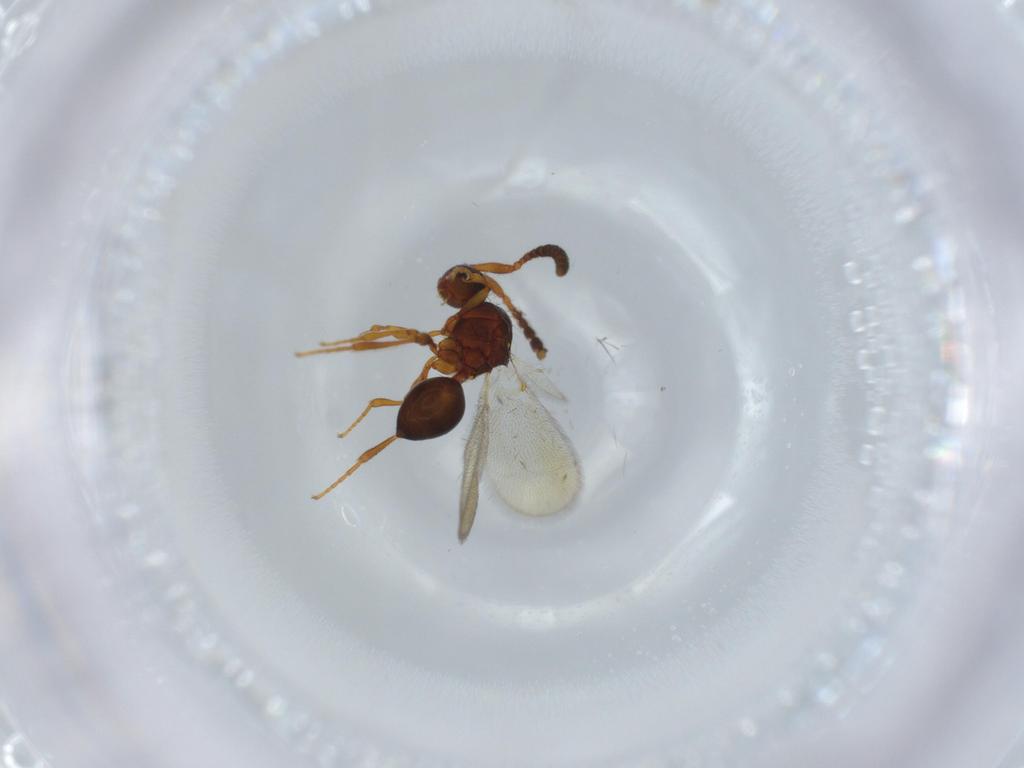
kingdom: Animalia
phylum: Arthropoda
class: Insecta
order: Hymenoptera
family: Diapriidae
